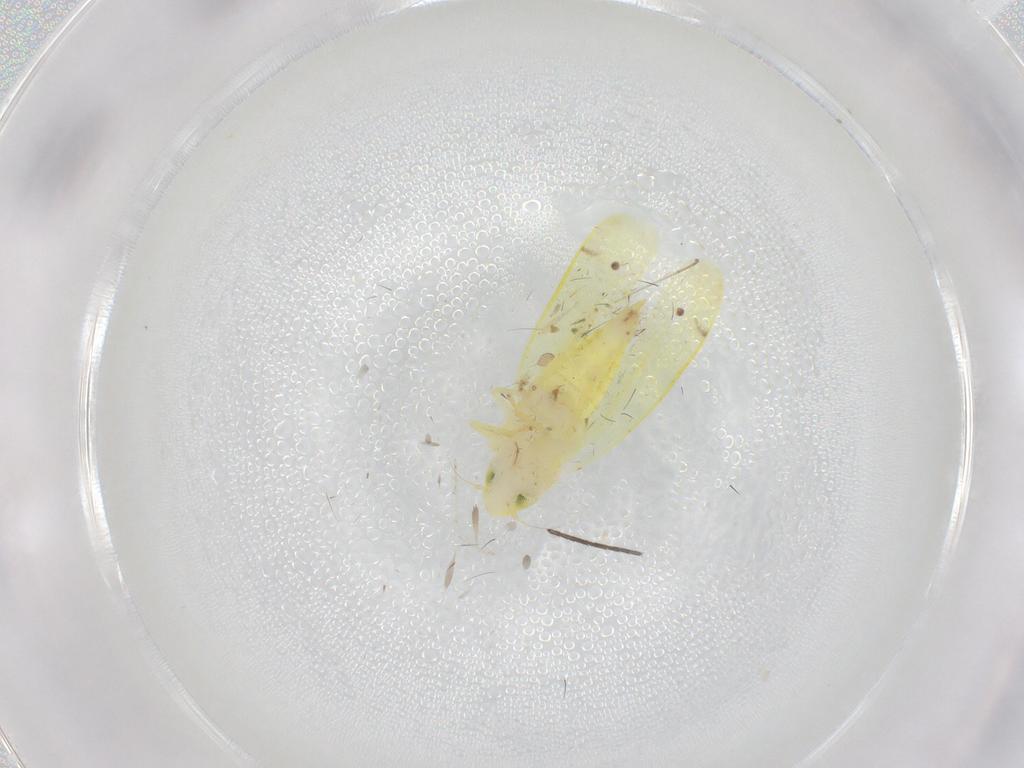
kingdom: Animalia
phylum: Arthropoda
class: Insecta
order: Hemiptera
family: Cicadellidae
